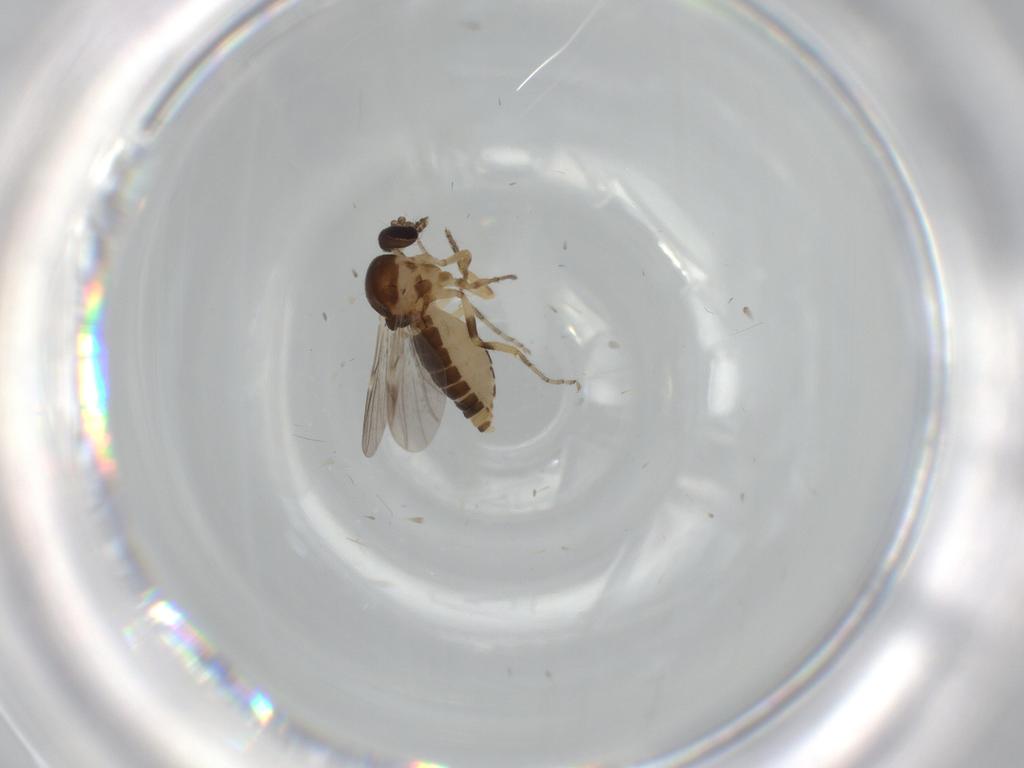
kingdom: Animalia
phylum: Arthropoda
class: Insecta
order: Diptera
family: Ceratopogonidae
